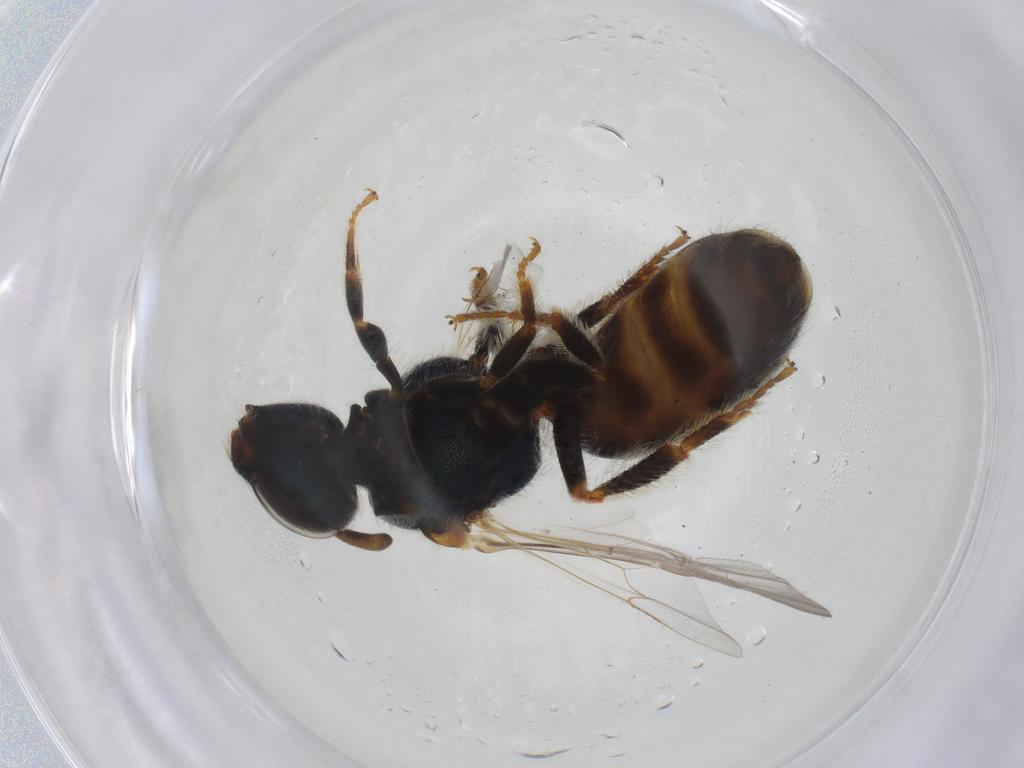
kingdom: Animalia
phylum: Arthropoda
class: Insecta
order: Hymenoptera
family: Halictidae
